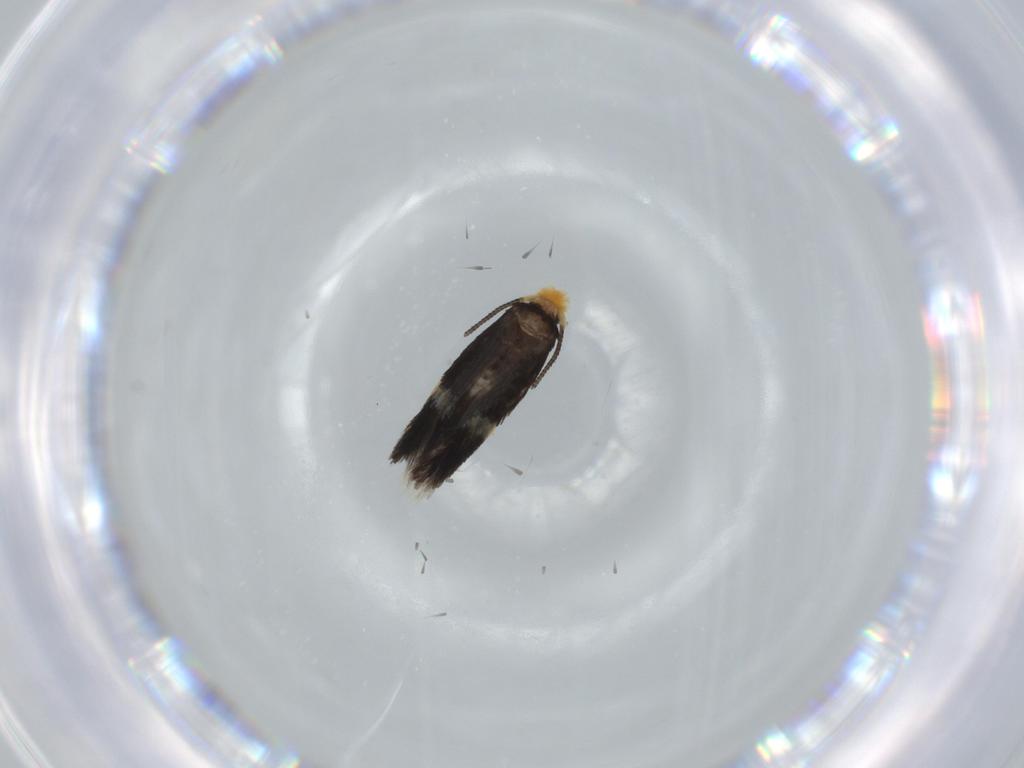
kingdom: Animalia
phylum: Arthropoda
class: Insecta
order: Lepidoptera
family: Nepticulidae
